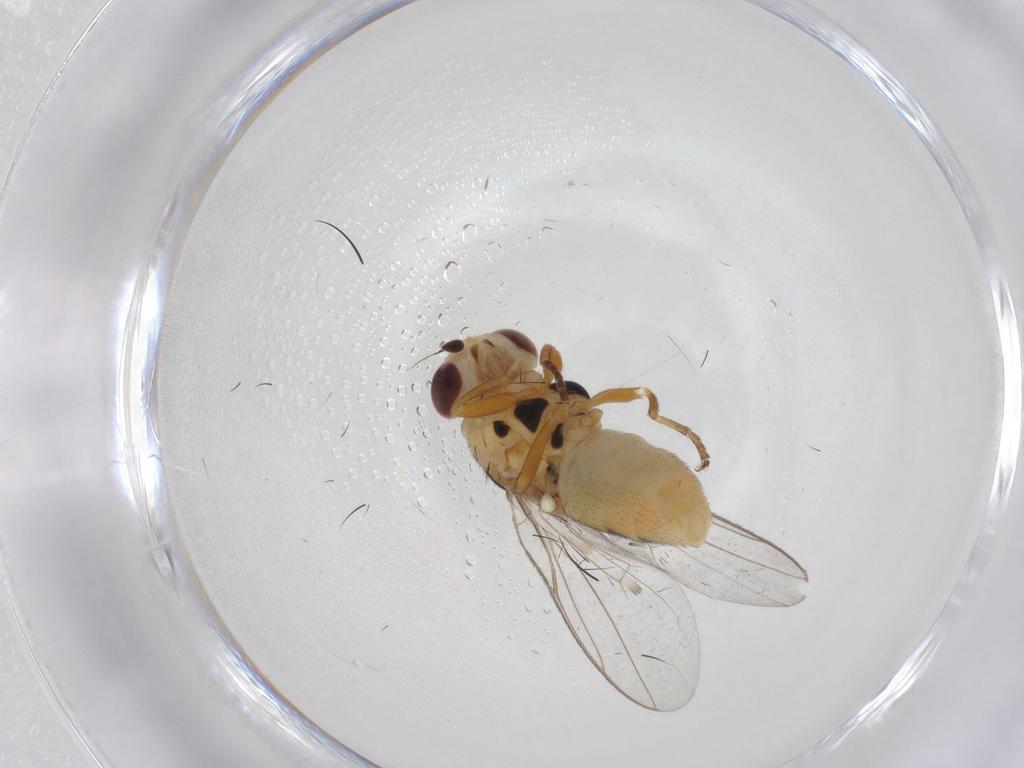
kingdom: Animalia
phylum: Arthropoda
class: Insecta
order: Diptera
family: Chloropidae
